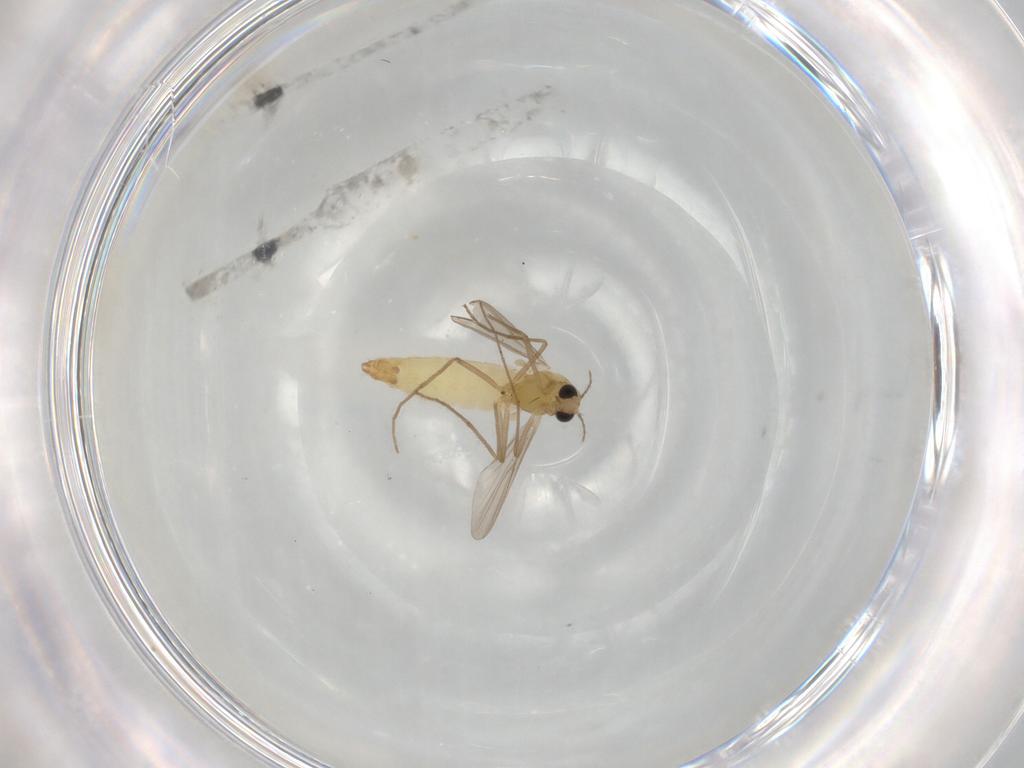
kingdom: Animalia
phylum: Arthropoda
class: Insecta
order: Diptera
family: Chironomidae
